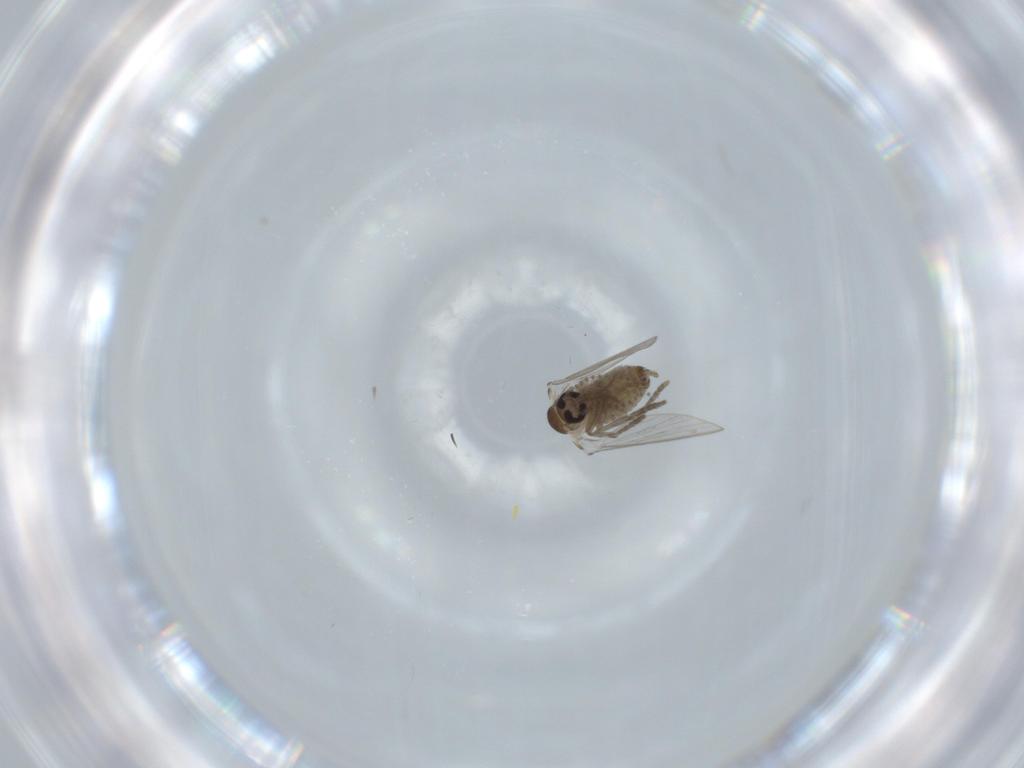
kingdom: Animalia
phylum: Arthropoda
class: Insecta
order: Diptera
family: Psychodidae
